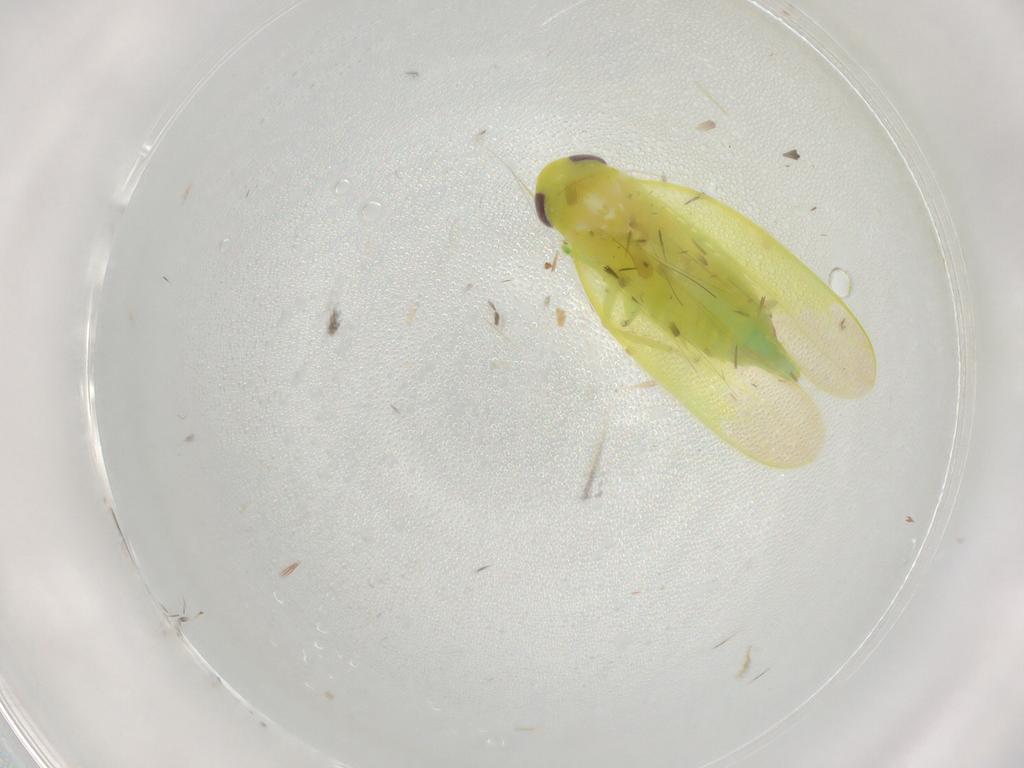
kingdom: Animalia
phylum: Arthropoda
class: Insecta
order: Hemiptera
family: Cicadellidae
